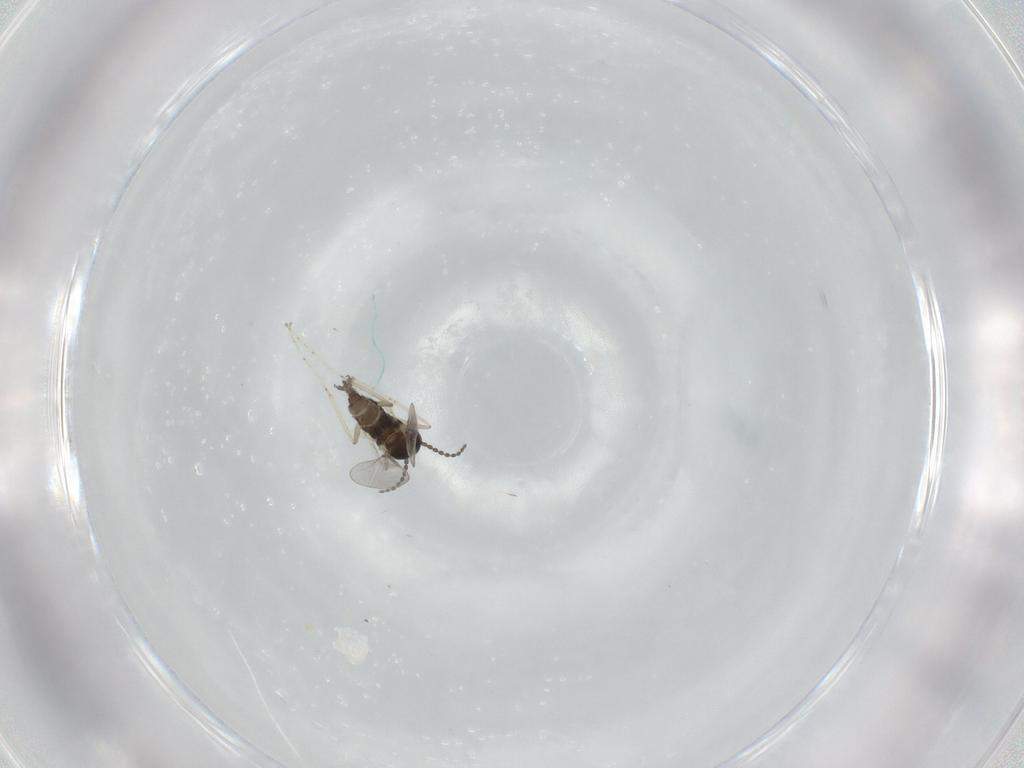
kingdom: Animalia
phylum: Arthropoda
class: Insecta
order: Diptera
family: Cecidomyiidae
